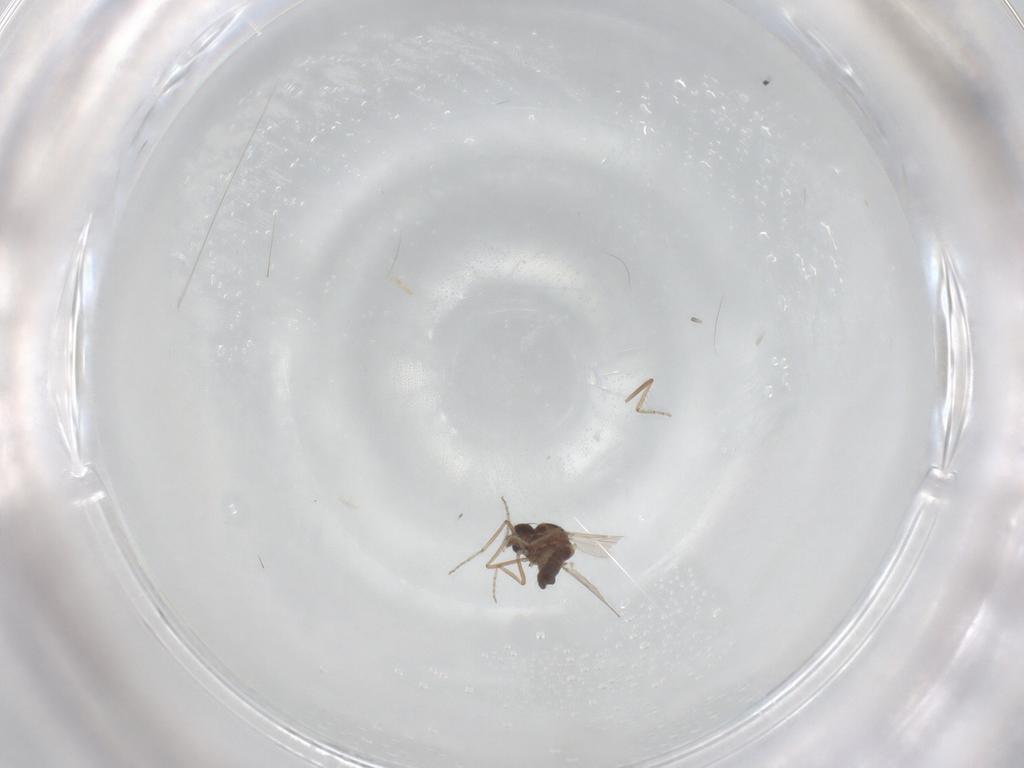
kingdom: Animalia
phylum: Arthropoda
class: Insecta
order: Diptera
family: Ceratopogonidae
